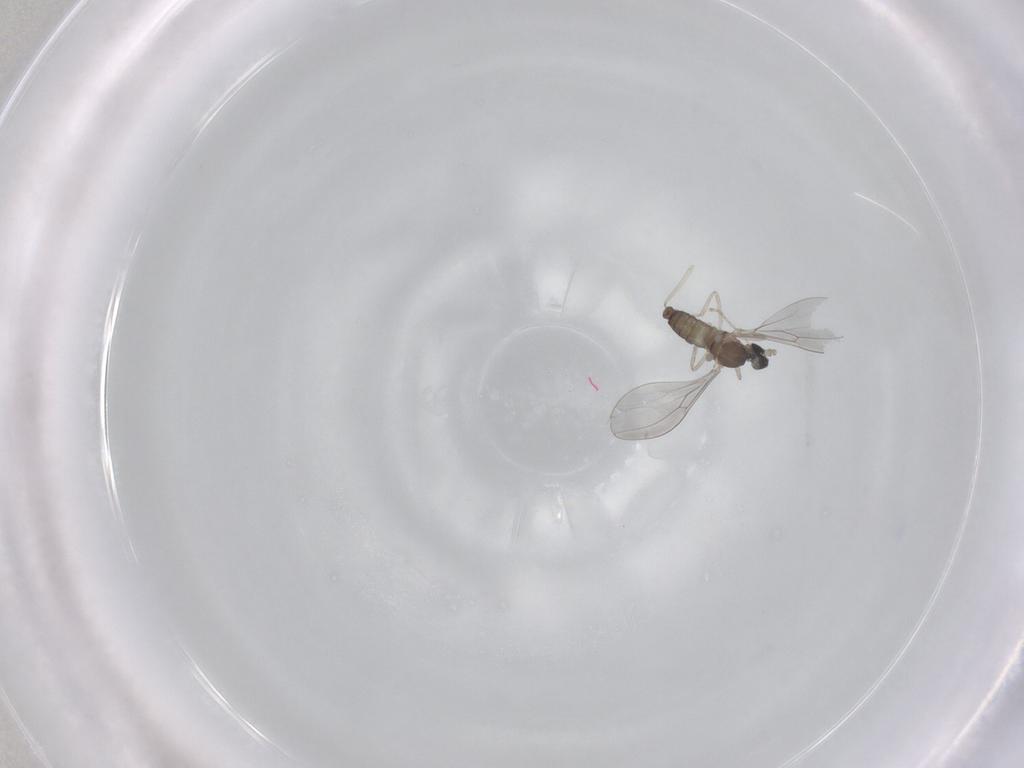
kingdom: Animalia
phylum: Arthropoda
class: Insecta
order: Diptera
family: Cecidomyiidae
